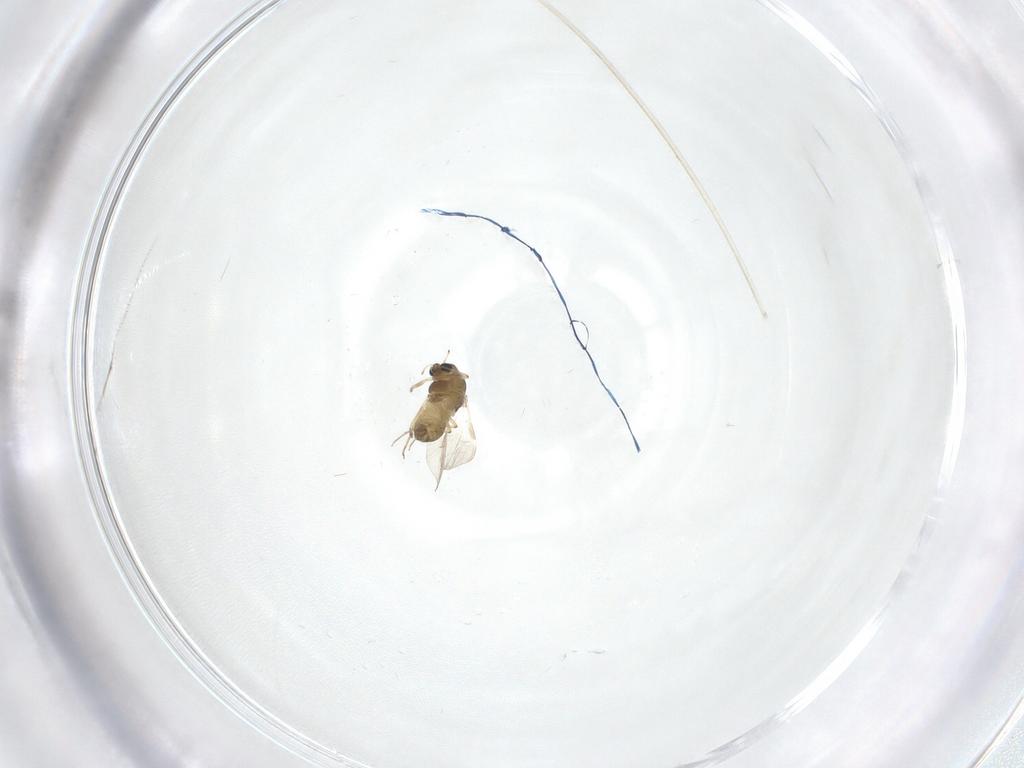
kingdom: Animalia
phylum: Arthropoda
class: Insecta
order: Diptera
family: Chironomidae
